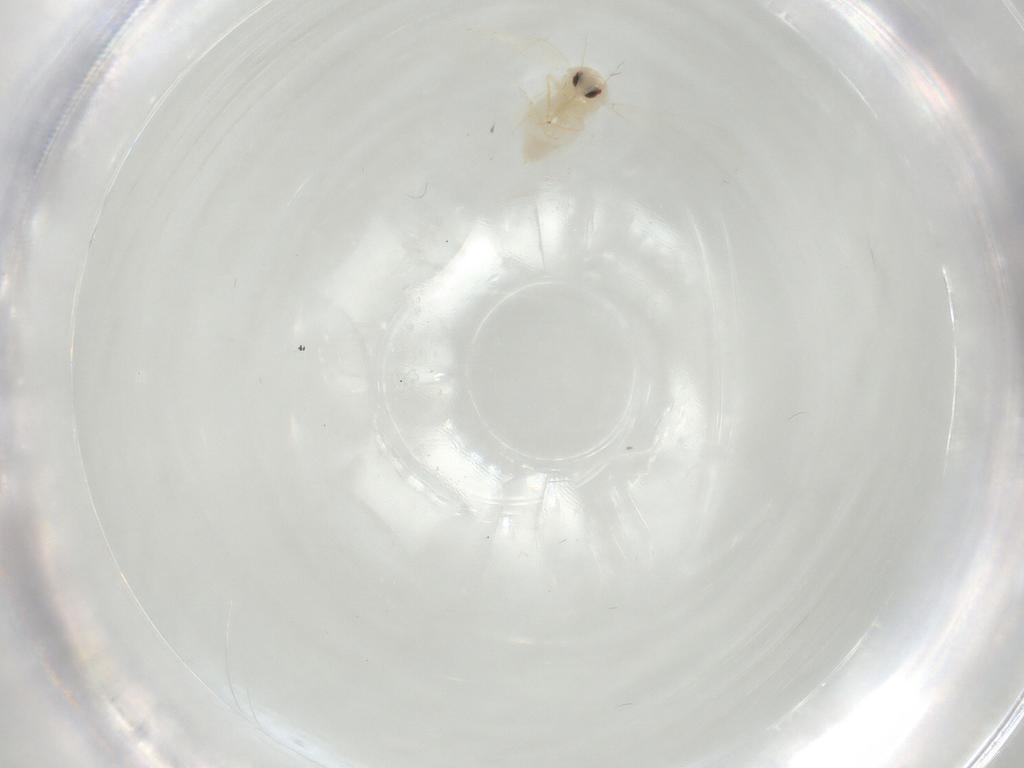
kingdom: Animalia
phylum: Arthropoda
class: Insecta
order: Hemiptera
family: Aleyrodidae
